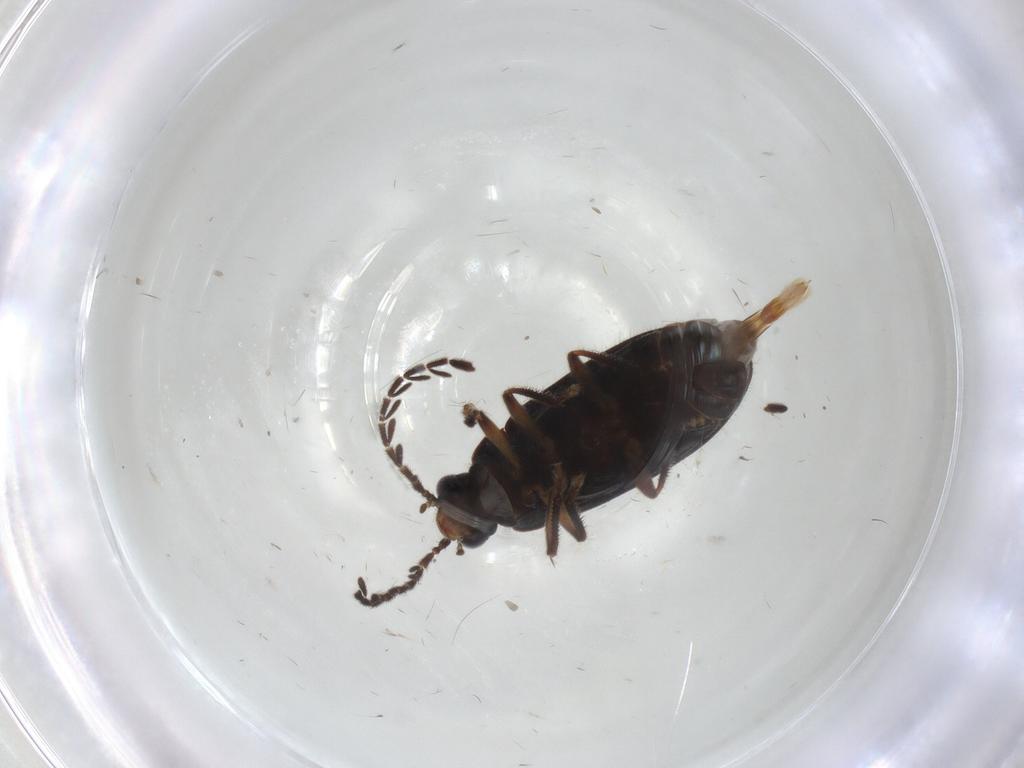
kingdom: Animalia
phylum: Arthropoda
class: Insecta
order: Coleoptera
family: Ptilodactylidae
